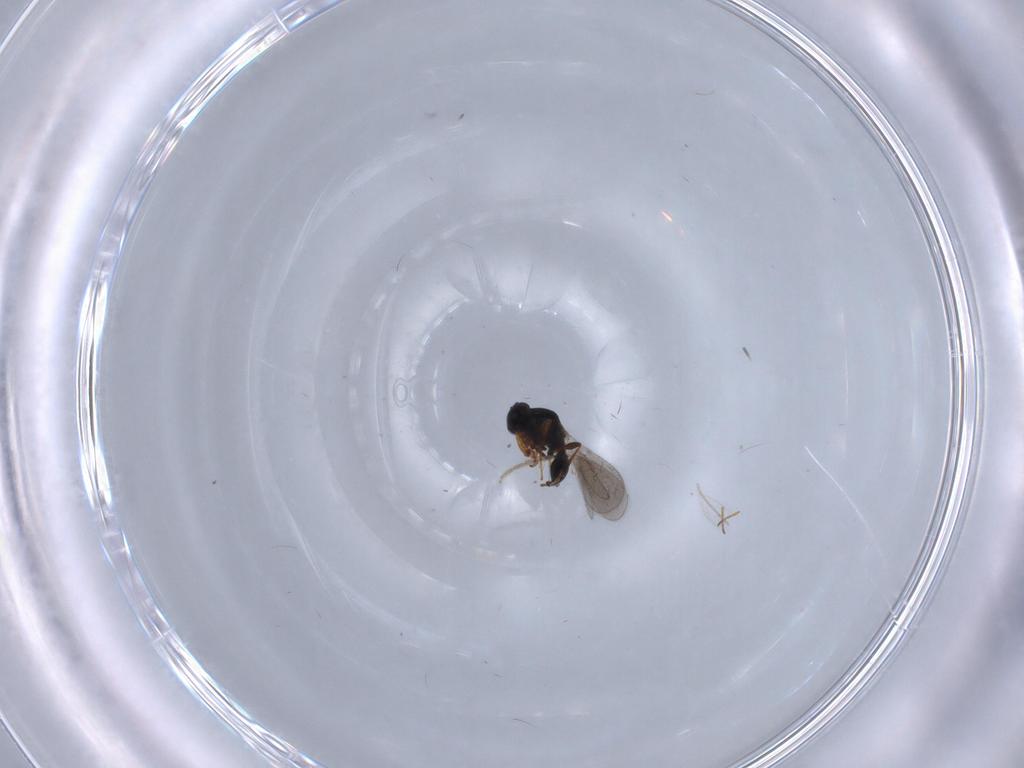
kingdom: Animalia
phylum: Arthropoda
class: Insecta
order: Hymenoptera
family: Platygastridae
